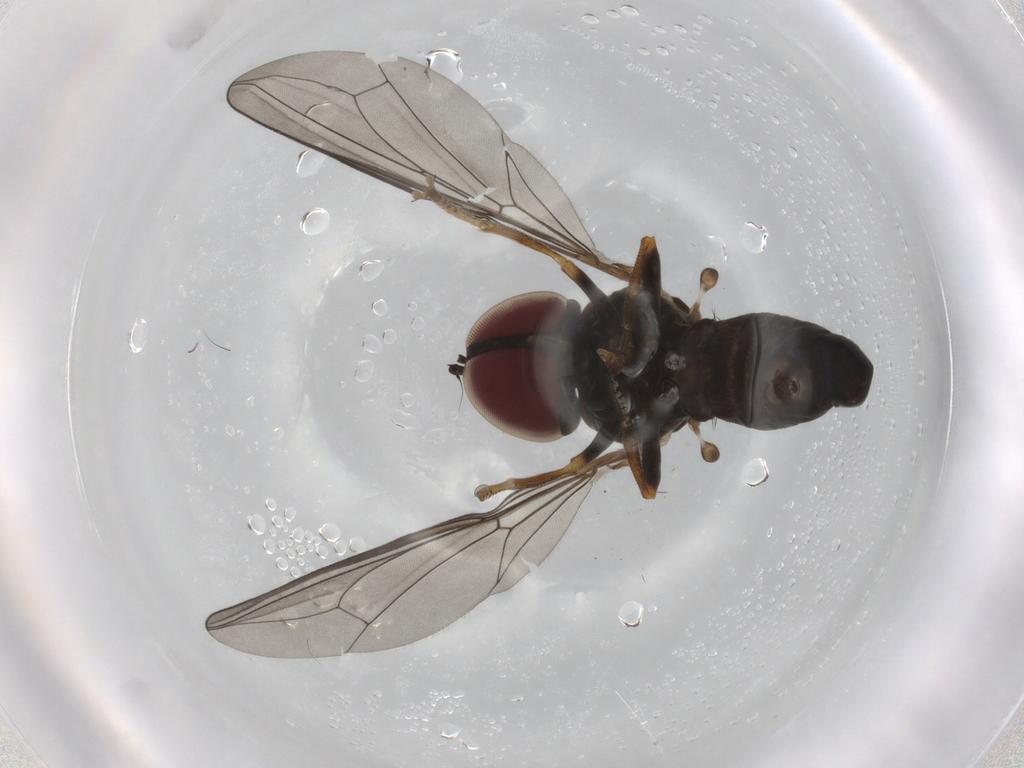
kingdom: Animalia
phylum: Arthropoda
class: Insecta
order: Diptera
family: Stratiomyidae
